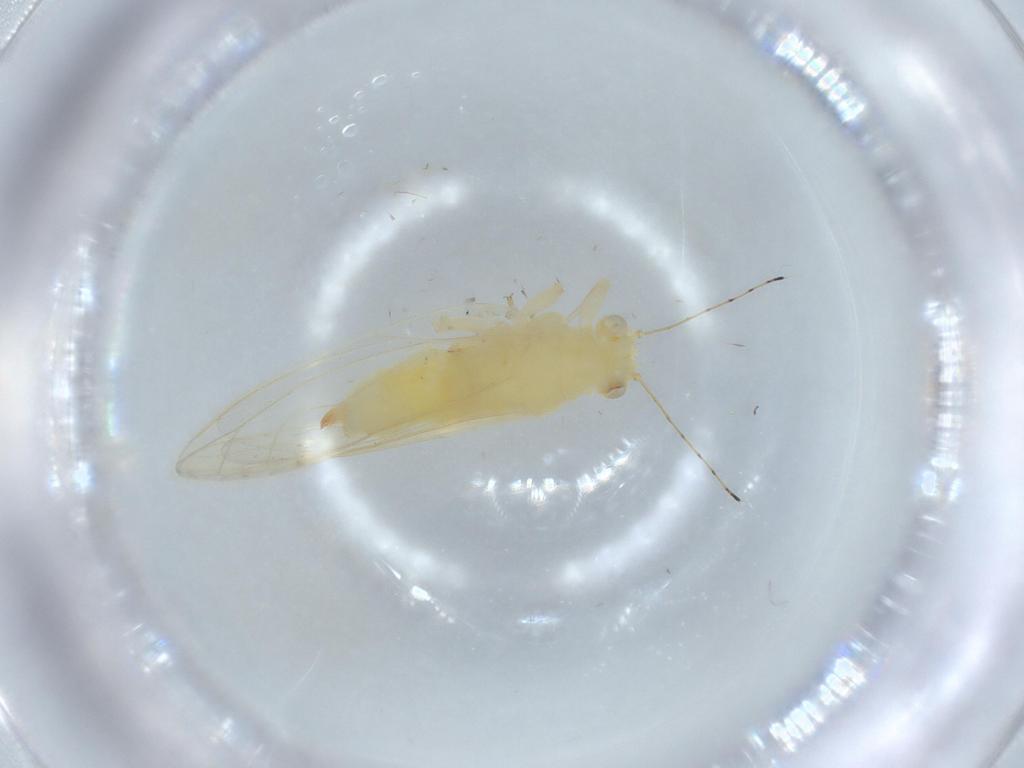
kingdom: Animalia
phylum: Arthropoda
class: Insecta
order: Hemiptera
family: Triozidae
